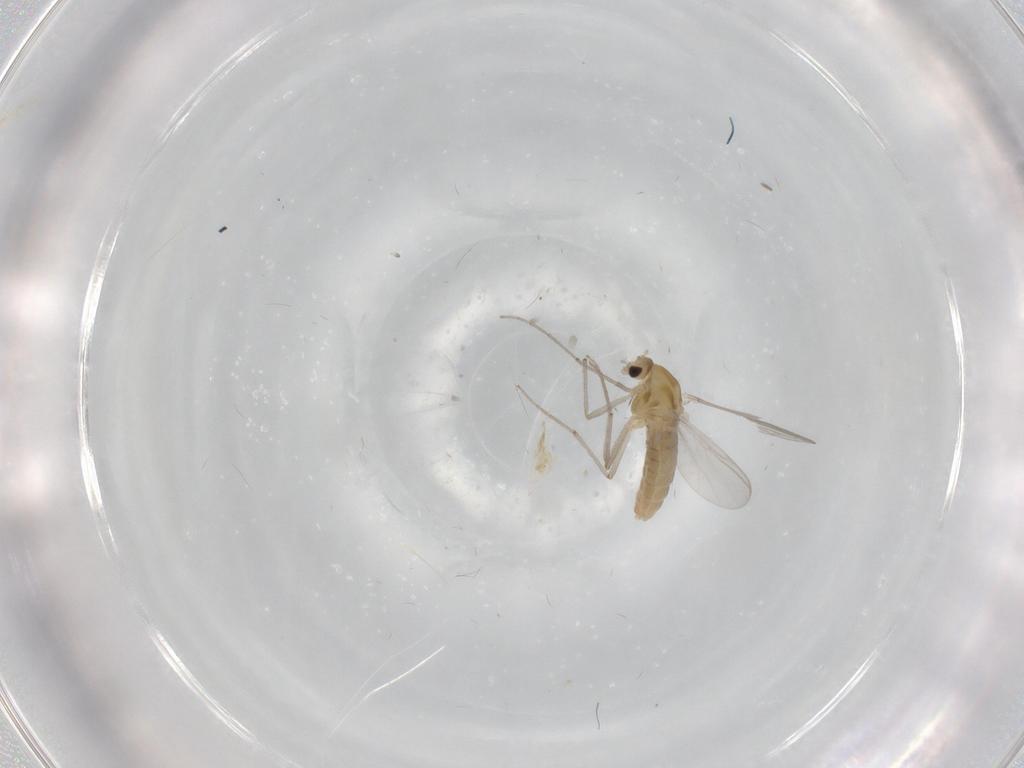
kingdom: Animalia
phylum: Arthropoda
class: Insecta
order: Diptera
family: Chironomidae
